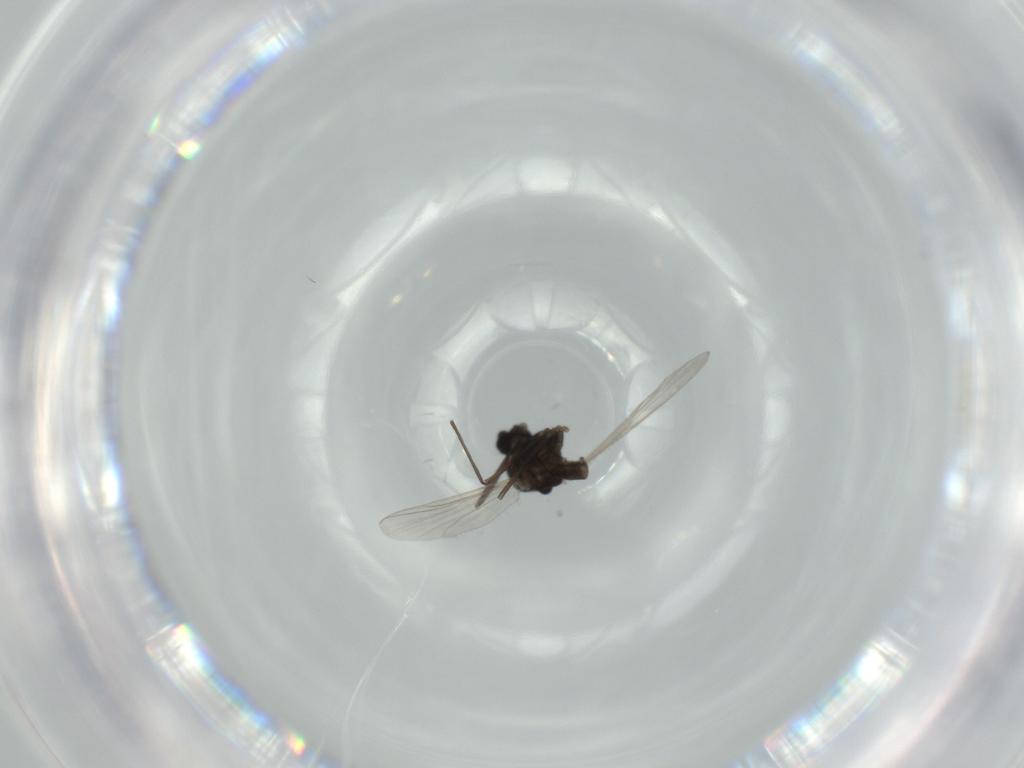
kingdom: Animalia
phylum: Arthropoda
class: Insecta
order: Diptera
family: Chironomidae
